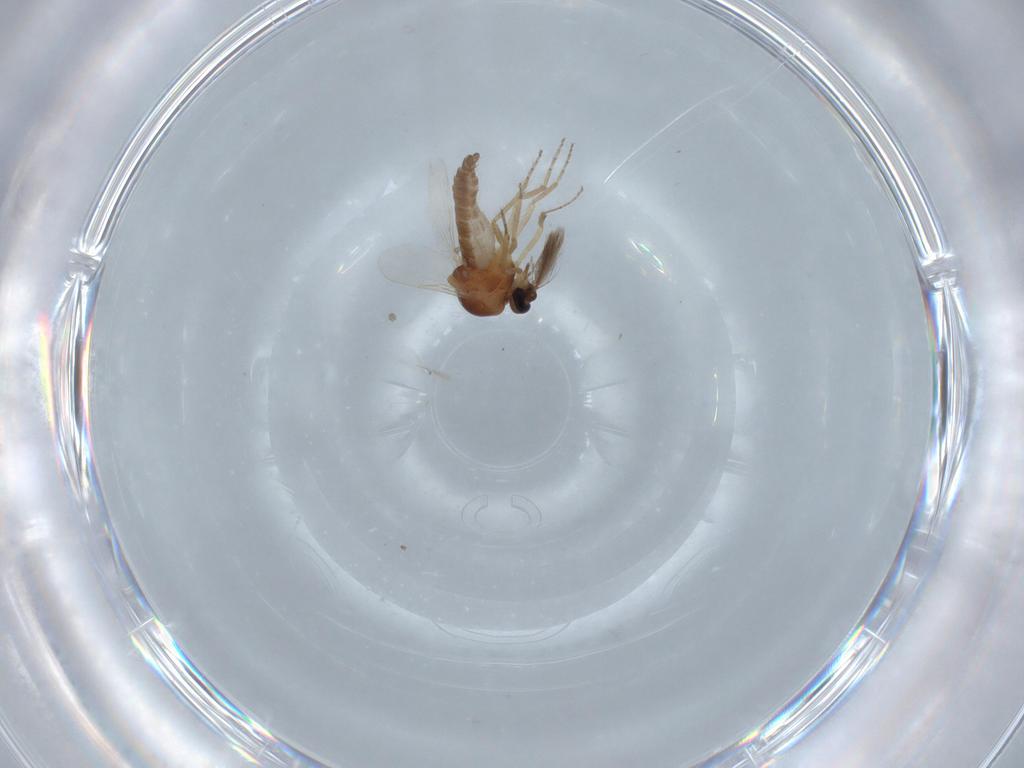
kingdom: Animalia
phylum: Arthropoda
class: Insecta
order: Diptera
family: Ceratopogonidae
